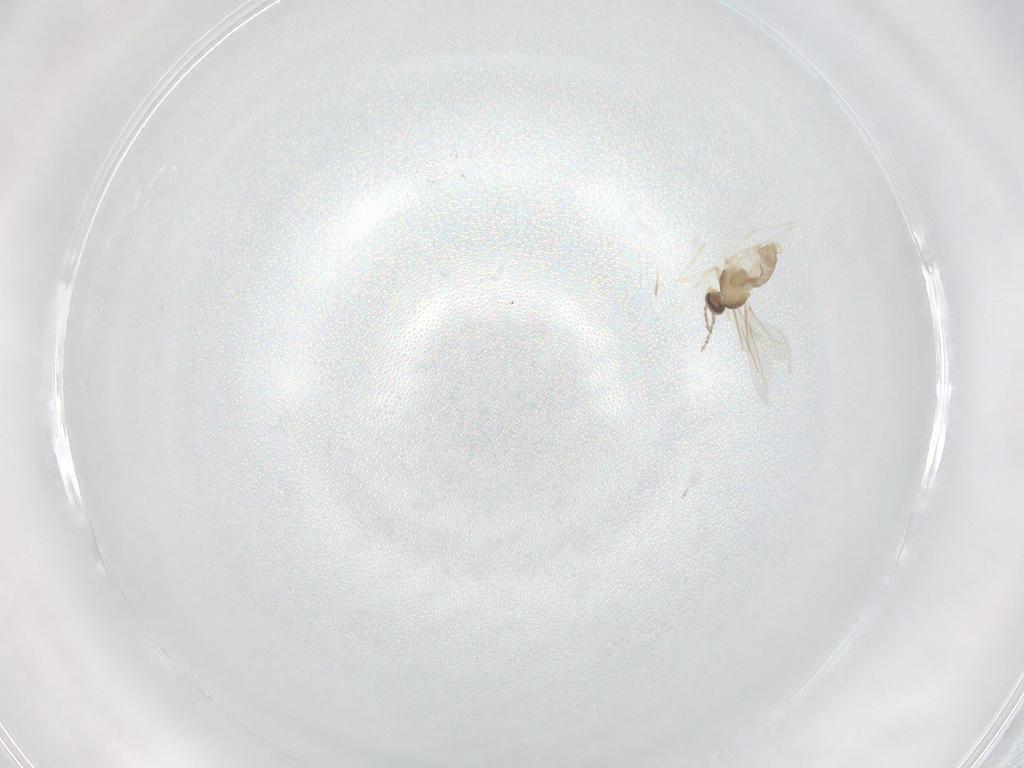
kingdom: Animalia
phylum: Arthropoda
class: Insecta
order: Diptera
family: Cecidomyiidae
